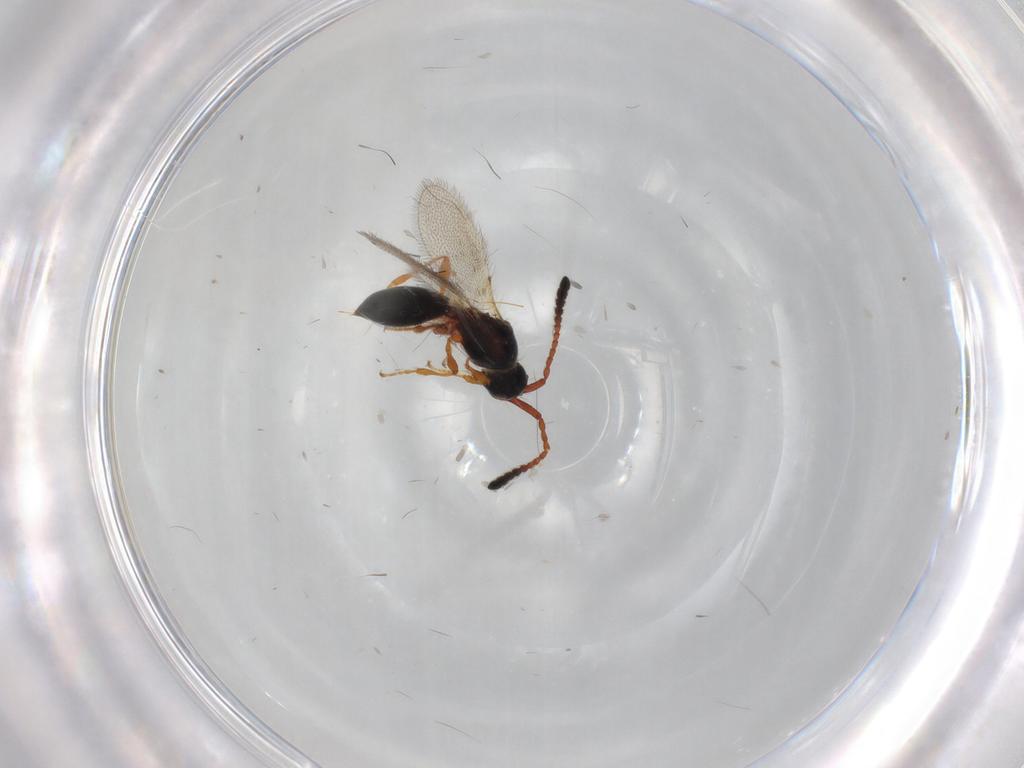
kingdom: Animalia
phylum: Arthropoda
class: Insecta
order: Hymenoptera
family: Diapriidae
